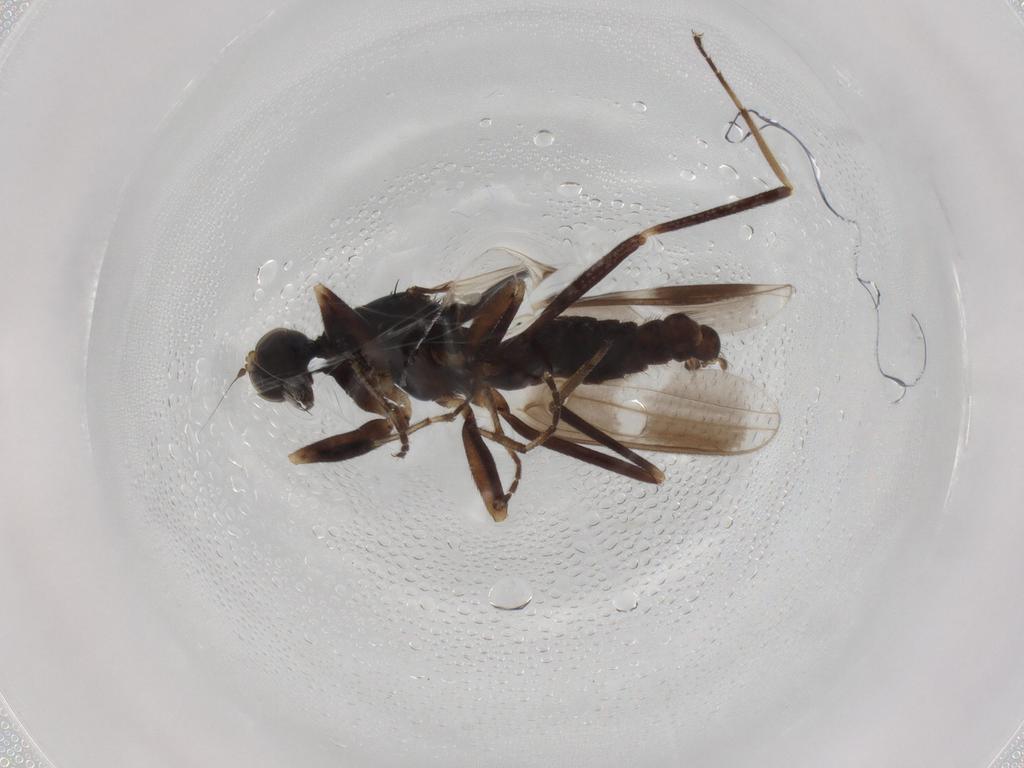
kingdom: Animalia
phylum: Arthropoda
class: Insecta
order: Diptera
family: Hybotidae
